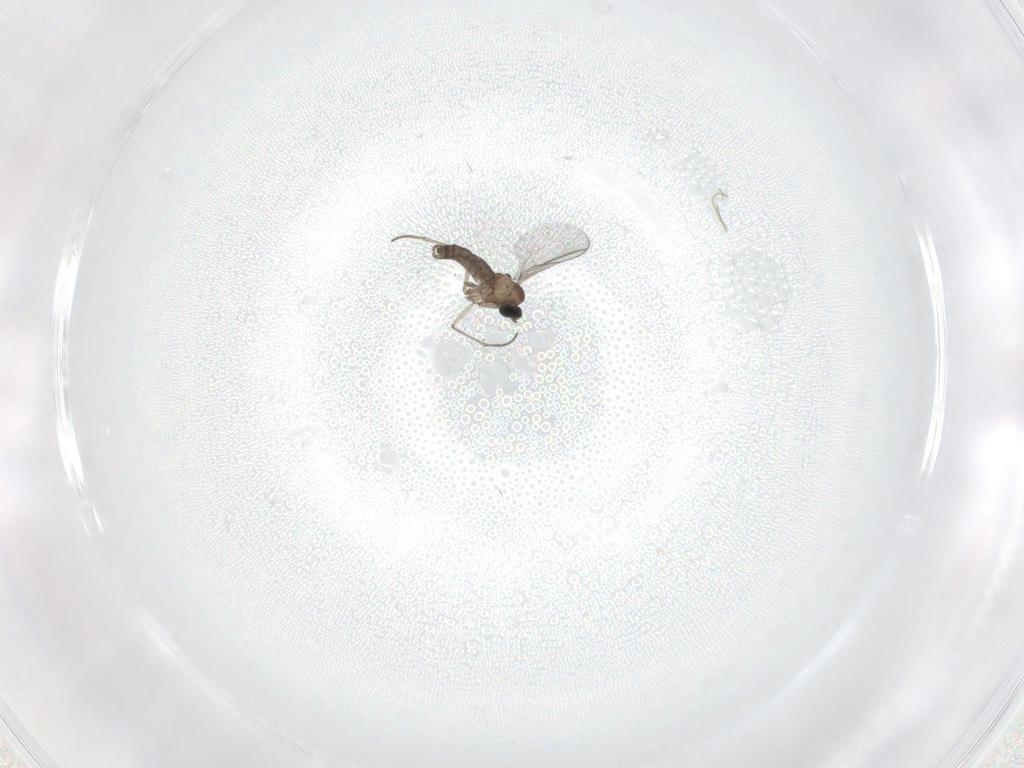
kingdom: Animalia
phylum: Arthropoda
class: Insecta
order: Diptera
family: Sciaridae
